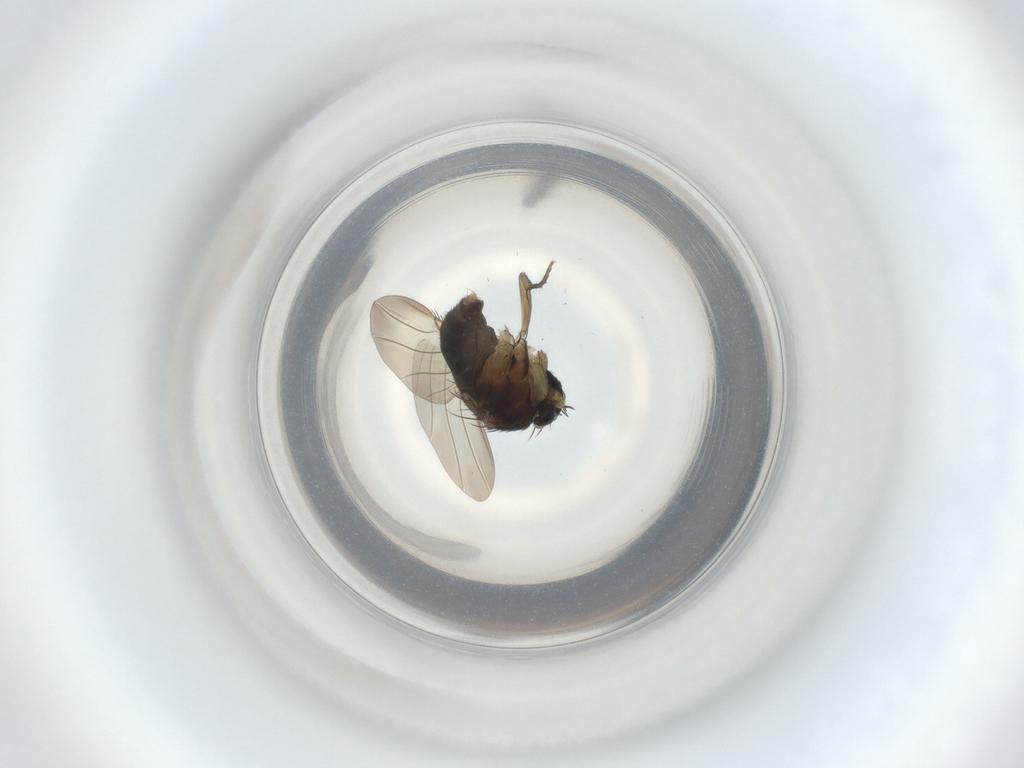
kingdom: Animalia
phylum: Arthropoda
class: Insecta
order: Diptera
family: Phoridae
